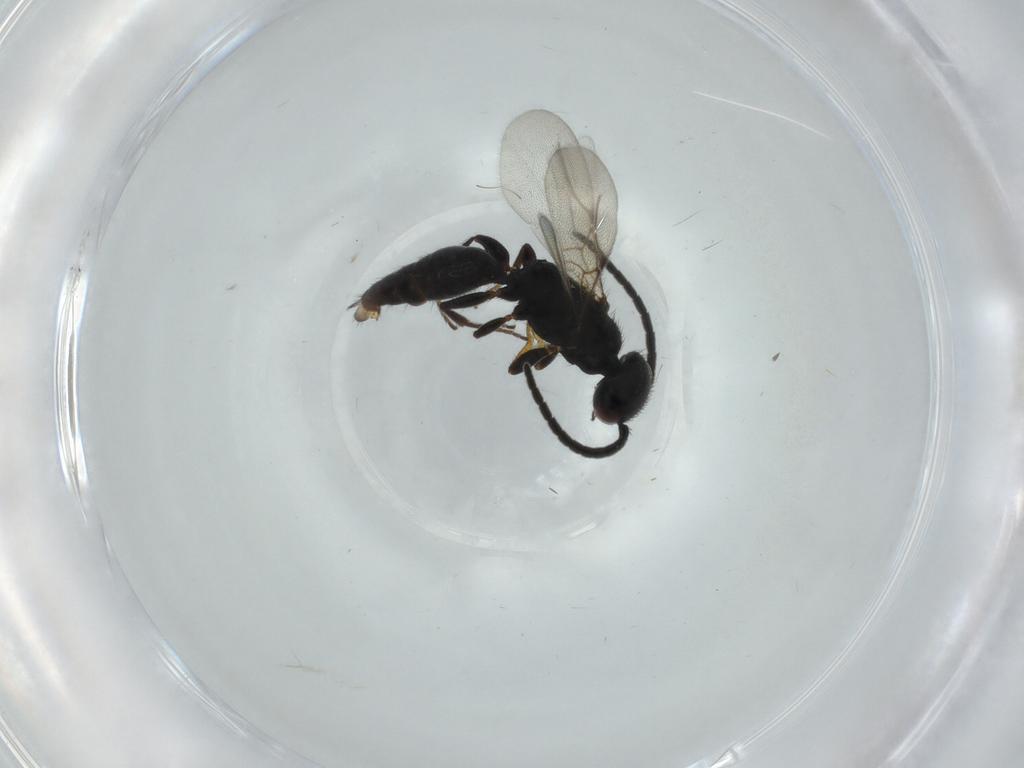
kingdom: Animalia
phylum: Arthropoda
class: Insecta
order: Hymenoptera
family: Bethylidae
